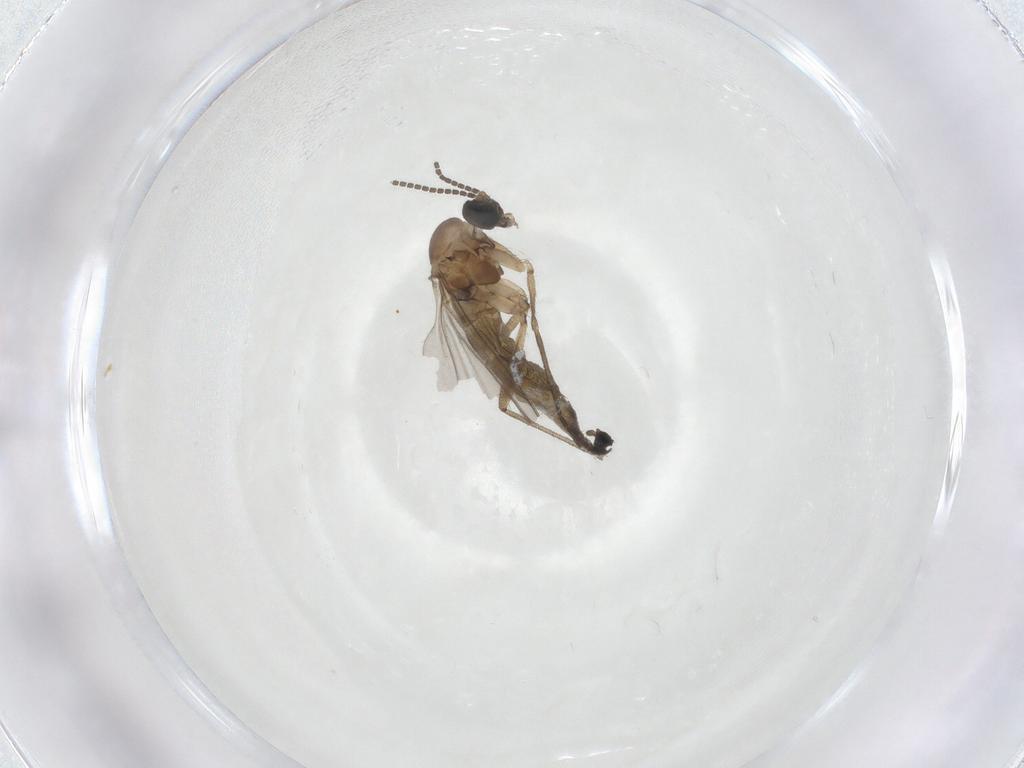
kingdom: Animalia
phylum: Arthropoda
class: Insecta
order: Diptera
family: Sciaridae
